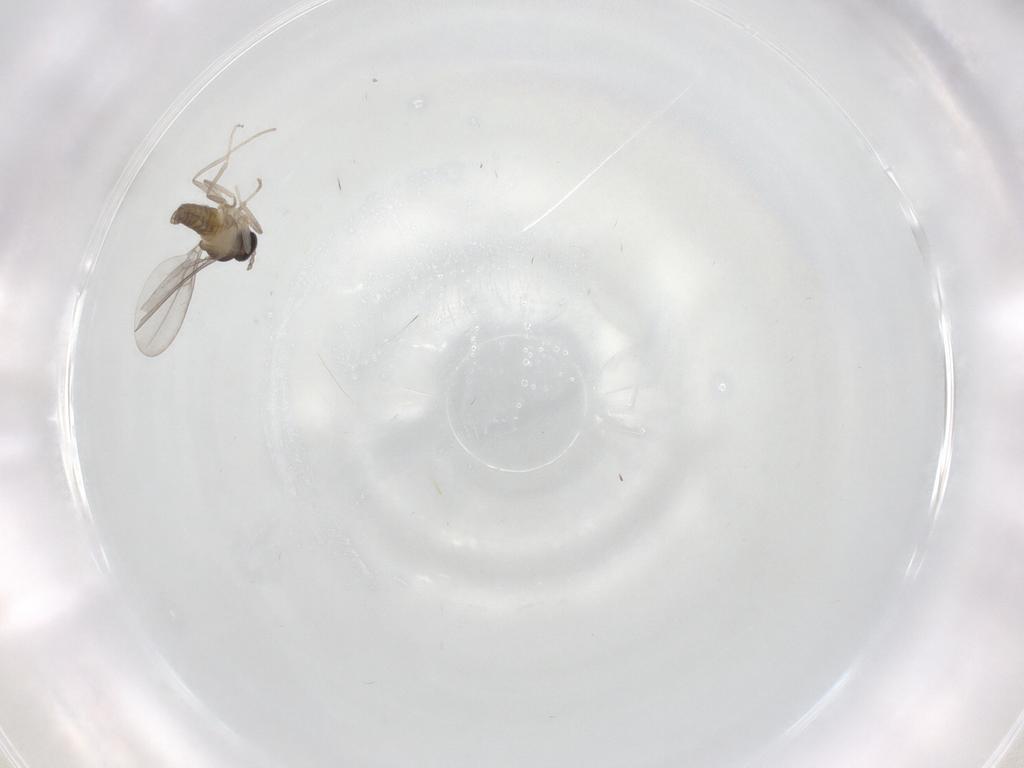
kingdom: Animalia
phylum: Arthropoda
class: Insecta
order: Diptera
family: Cecidomyiidae
